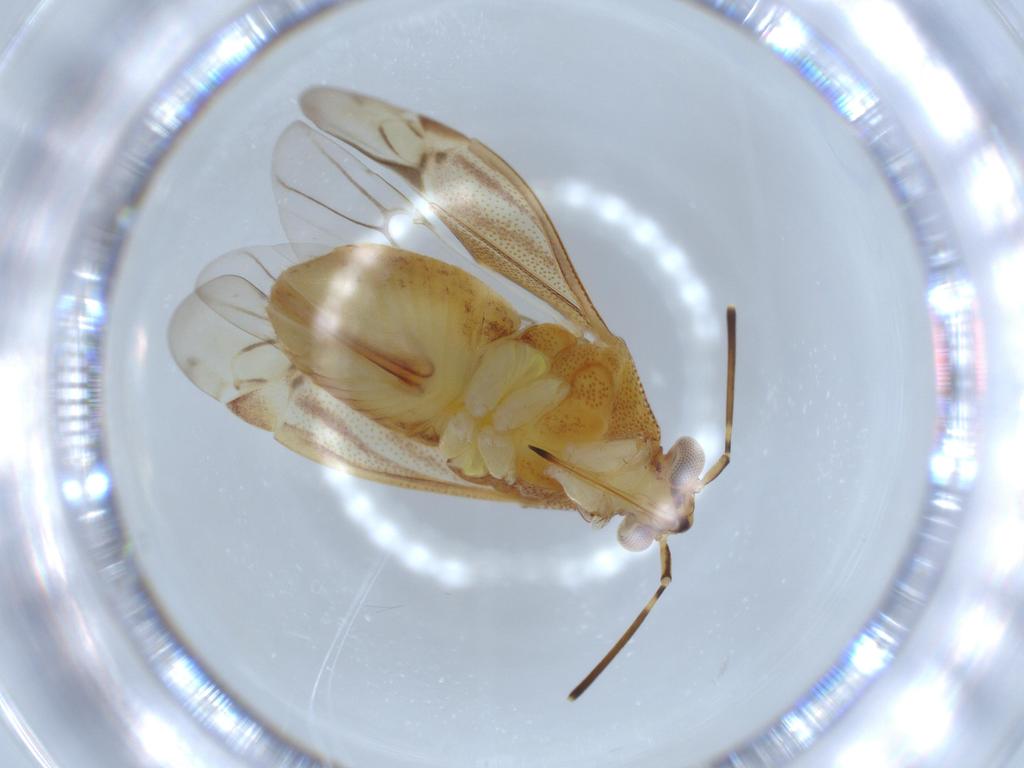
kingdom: Animalia
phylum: Arthropoda
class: Insecta
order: Hemiptera
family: Miridae
